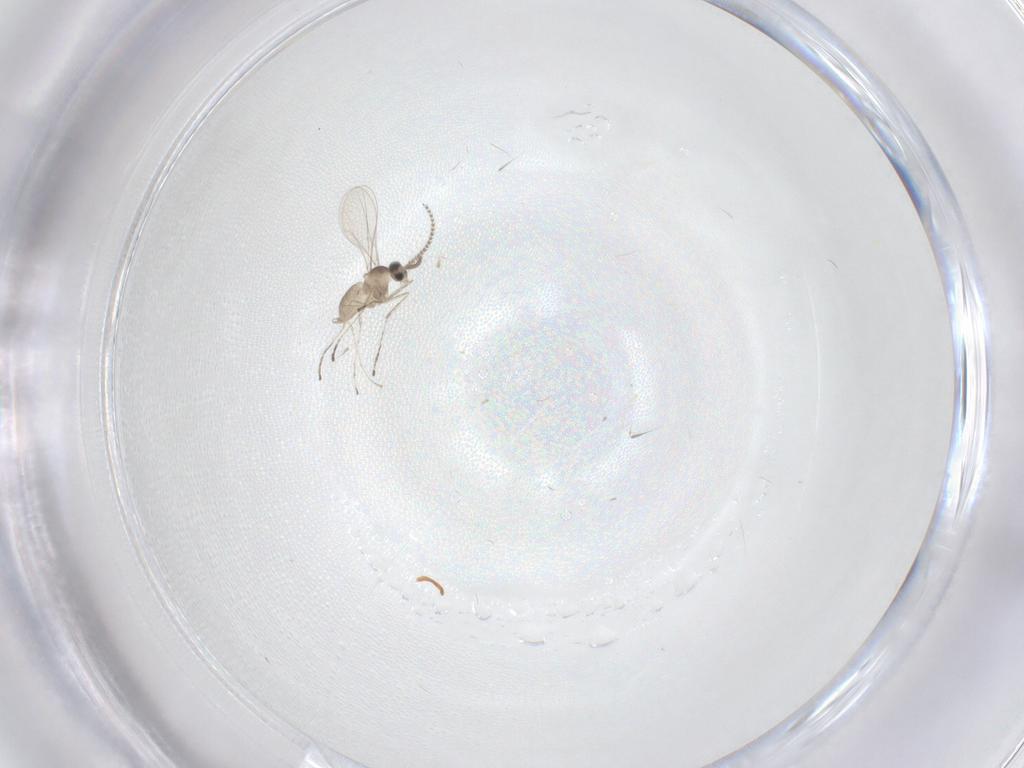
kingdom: Animalia
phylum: Arthropoda
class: Insecta
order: Diptera
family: Cecidomyiidae
